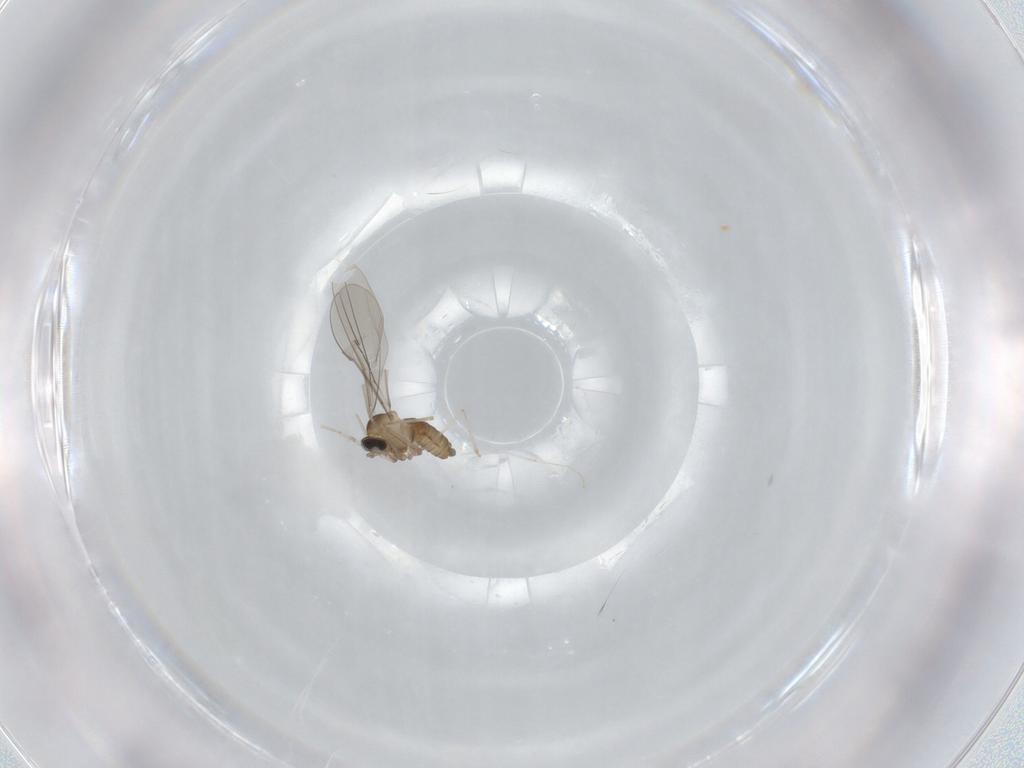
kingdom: Animalia
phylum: Arthropoda
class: Insecta
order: Diptera
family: Cecidomyiidae
